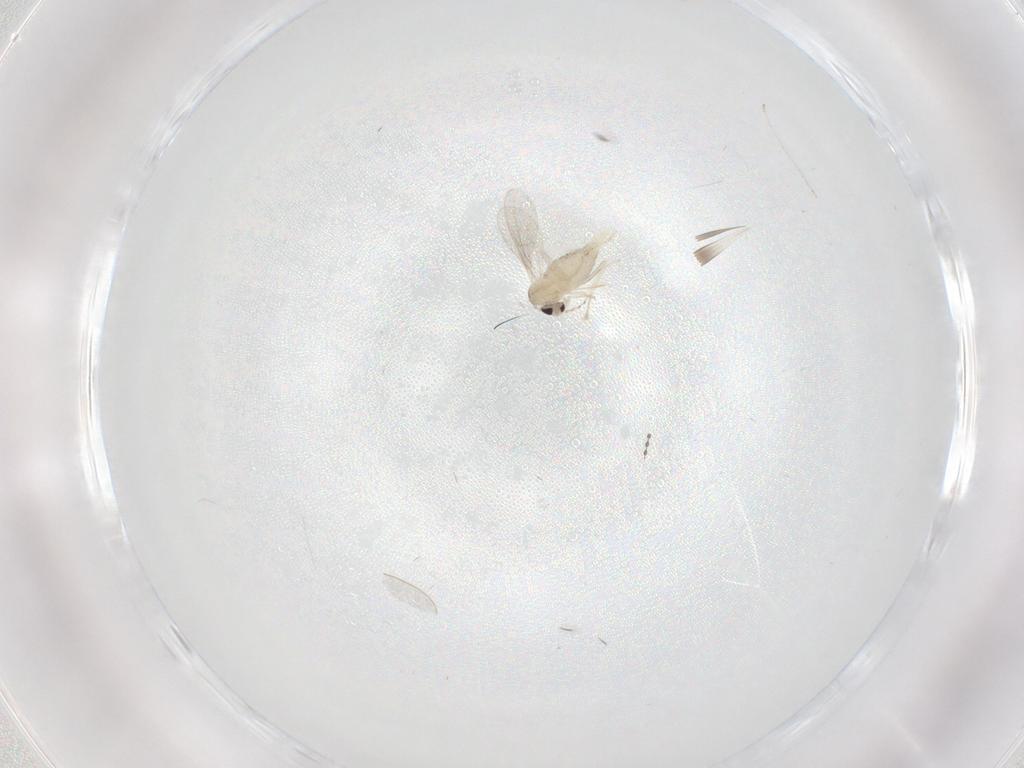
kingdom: Animalia
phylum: Arthropoda
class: Insecta
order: Diptera
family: Cecidomyiidae
